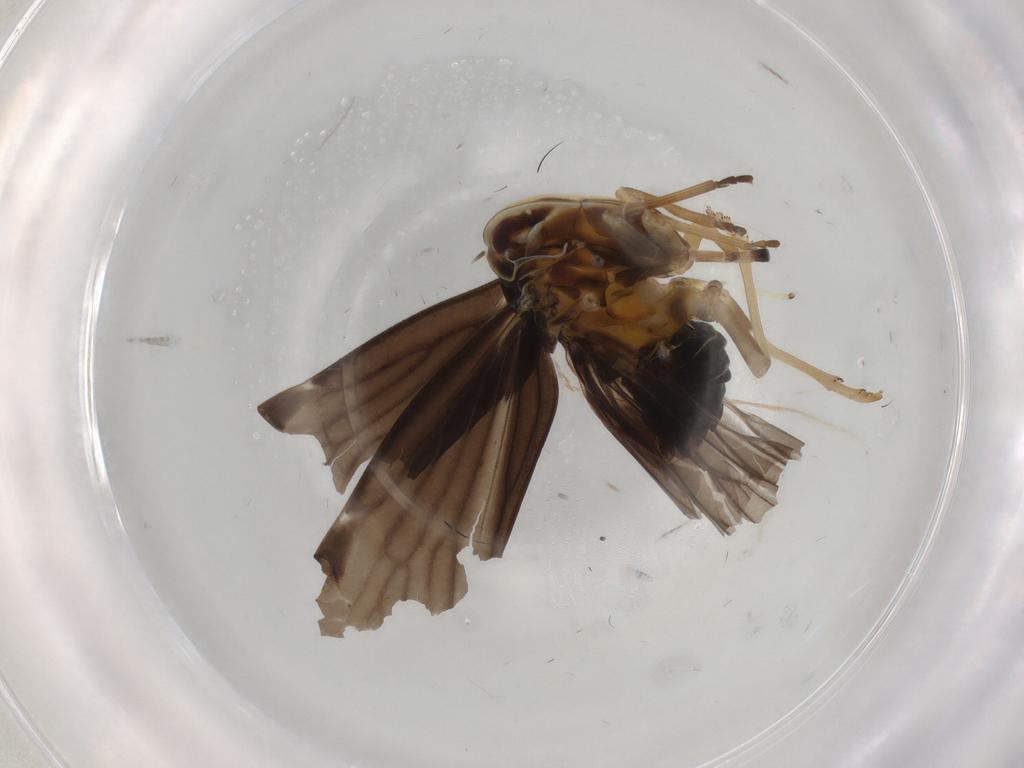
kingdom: Animalia
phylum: Arthropoda
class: Insecta
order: Hemiptera
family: Derbidae
